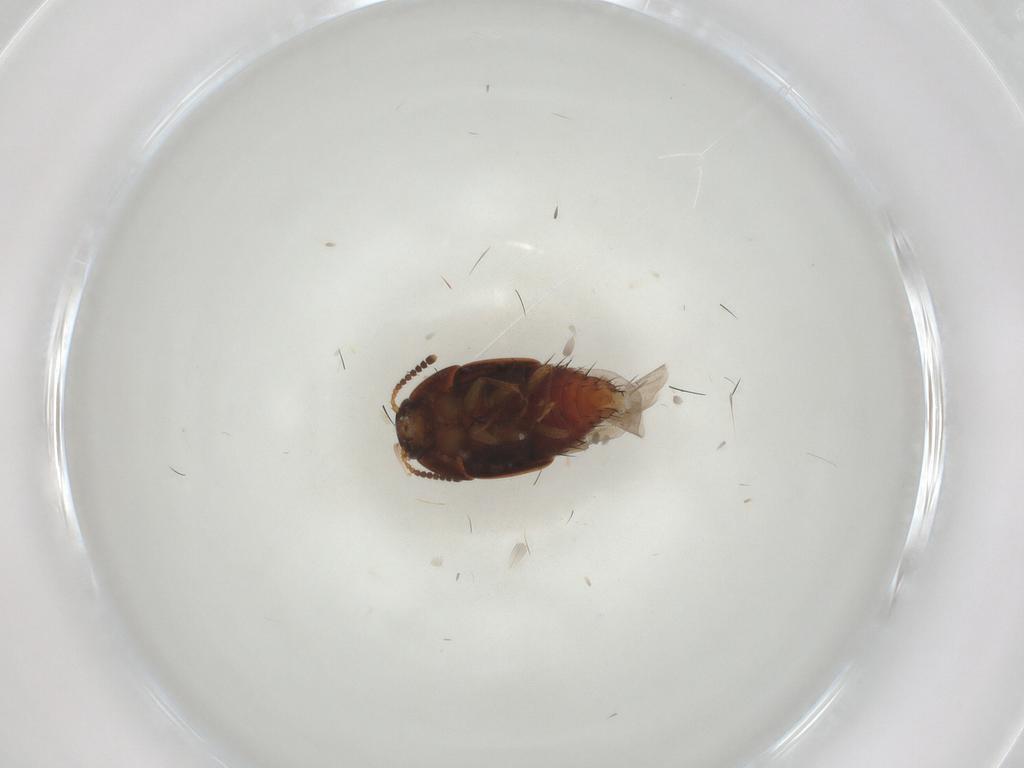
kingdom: Animalia
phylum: Arthropoda
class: Insecta
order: Coleoptera
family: Staphylinidae
